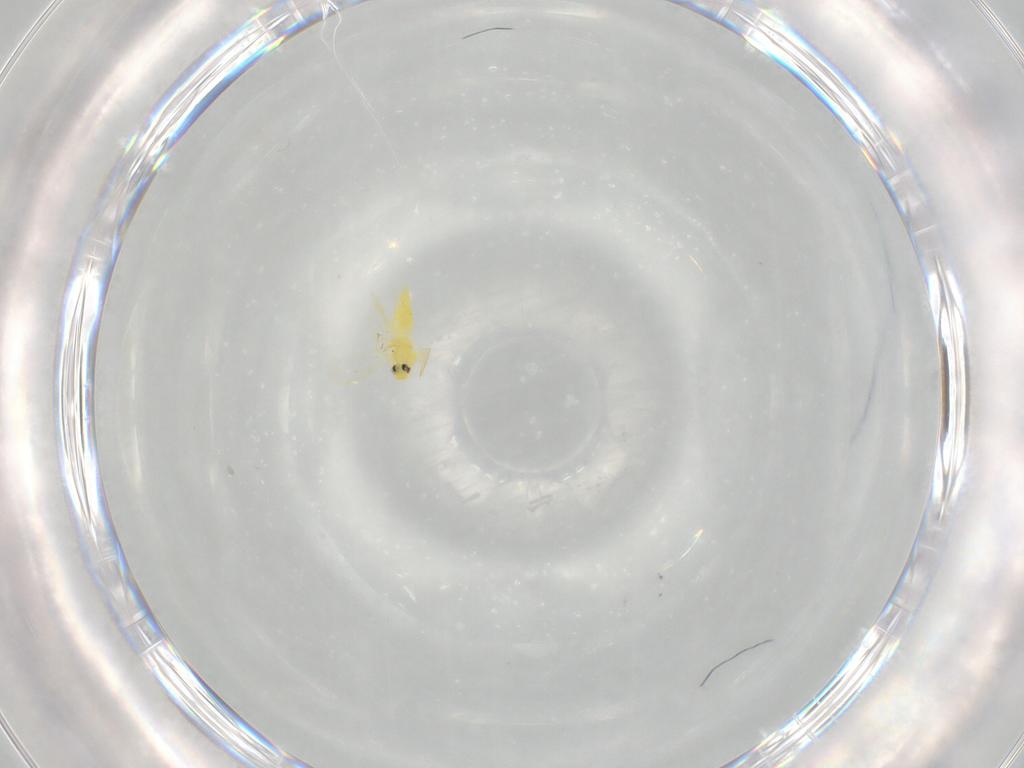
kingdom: Animalia
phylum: Arthropoda
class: Insecta
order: Hemiptera
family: Aleyrodidae
